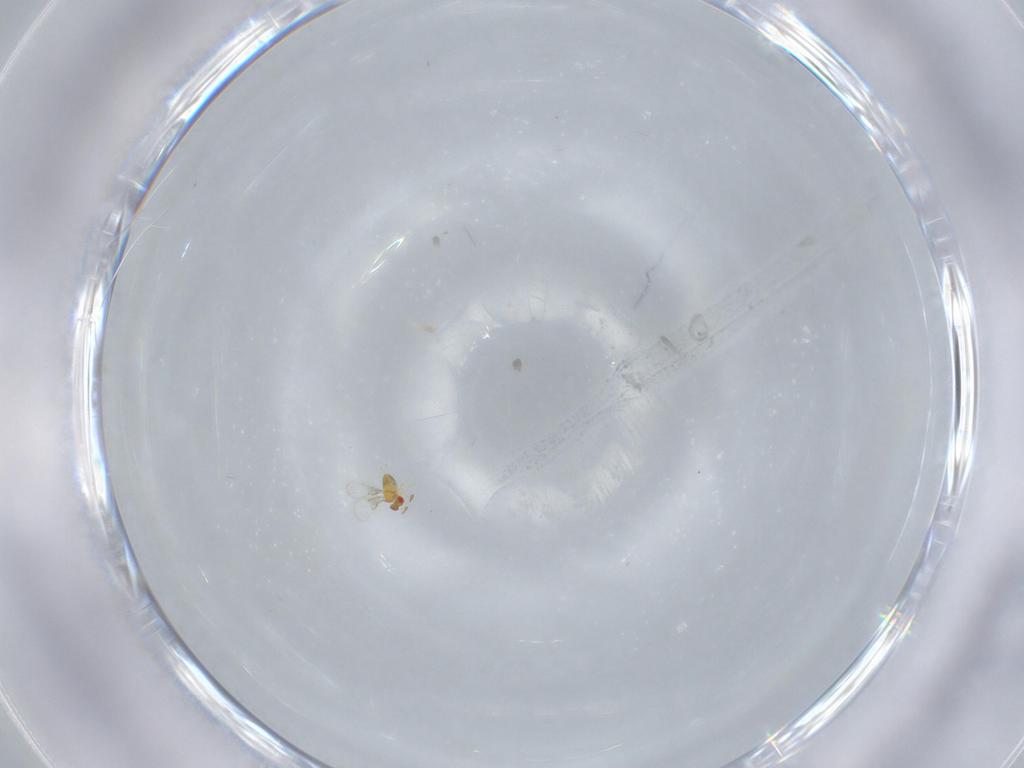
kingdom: Animalia
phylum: Arthropoda
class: Insecta
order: Hymenoptera
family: Trichogrammatidae
